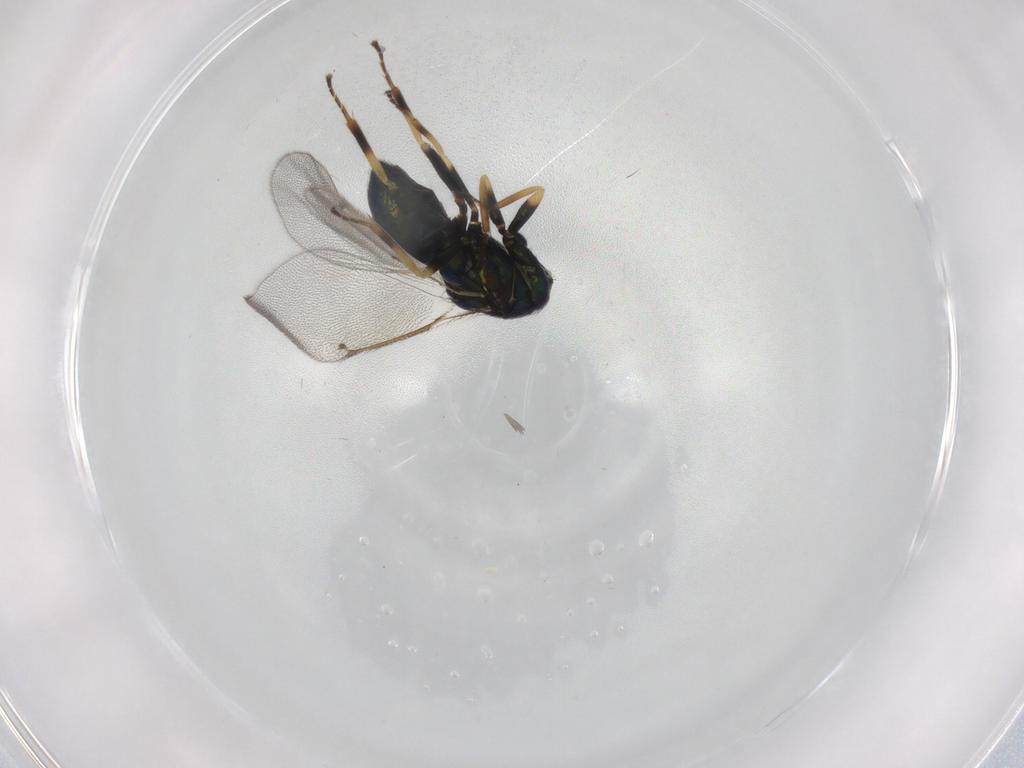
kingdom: Animalia
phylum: Arthropoda
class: Insecta
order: Hymenoptera
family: Eulophidae
